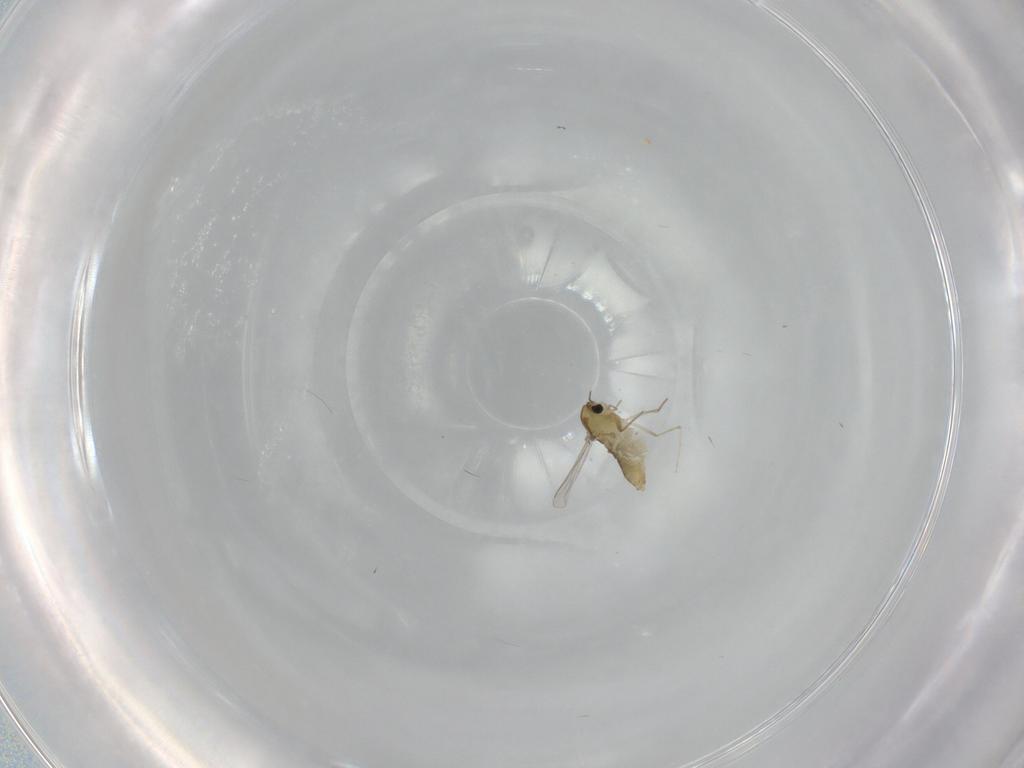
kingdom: Animalia
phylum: Arthropoda
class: Insecta
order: Diptera
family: Chironomidae
